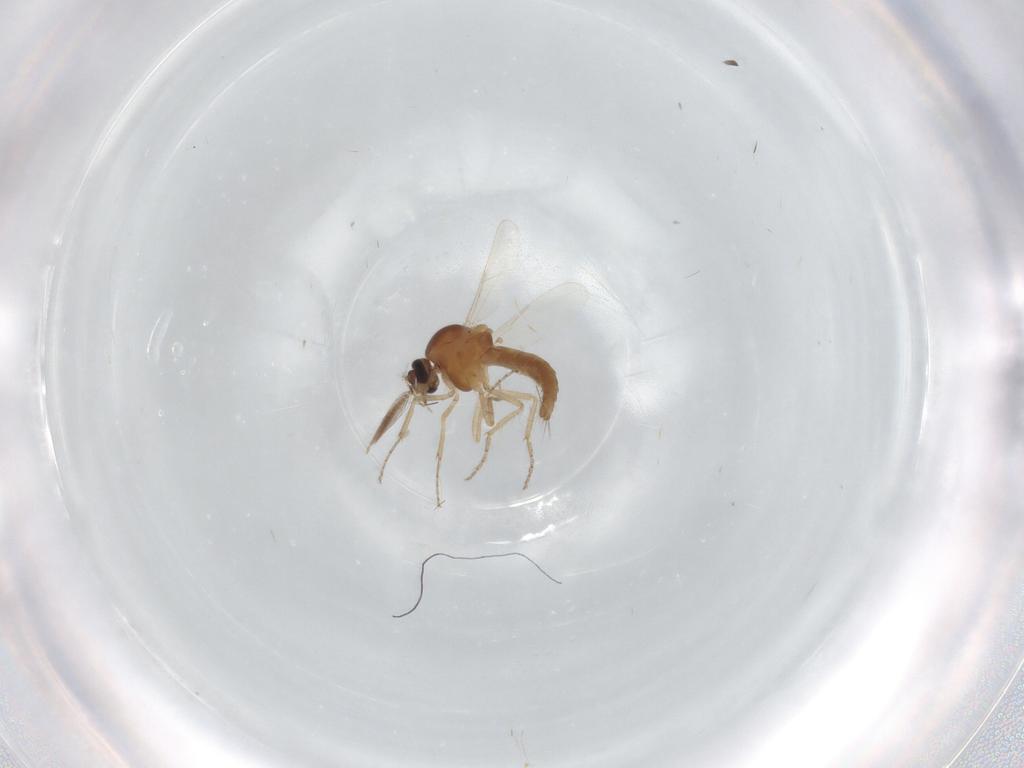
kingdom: Animalia
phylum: Arthropoda
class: Insecta
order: Diptera
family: Ceratopogonidae
